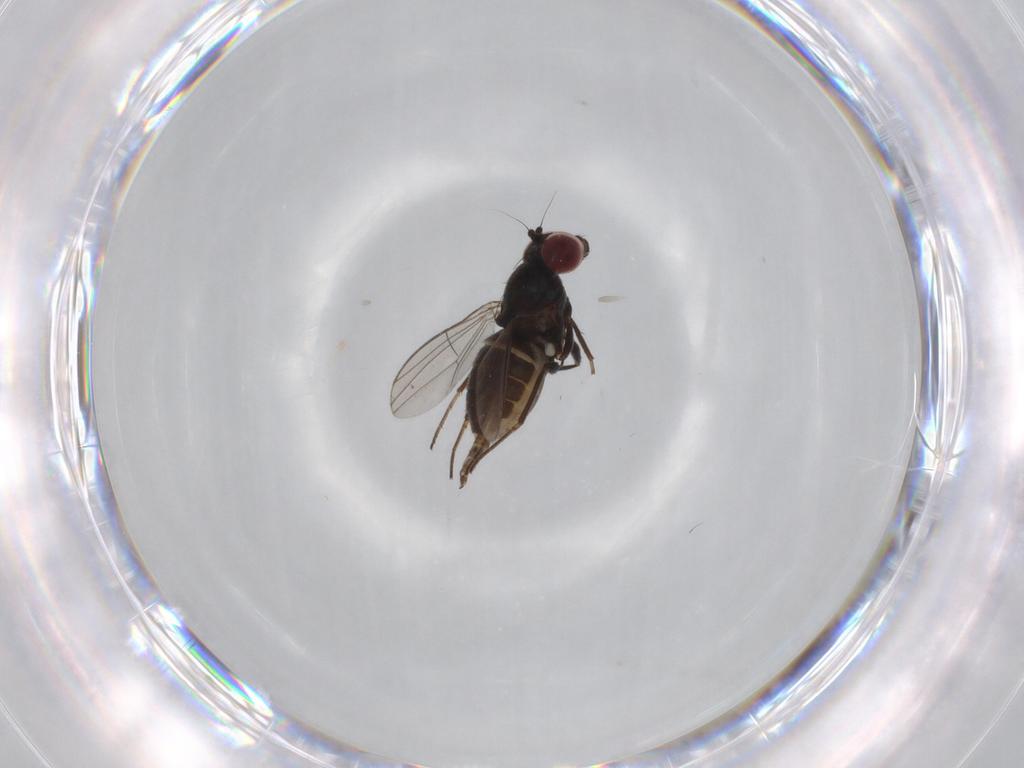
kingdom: Animalia
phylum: Arthropoda
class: Insecta
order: Diptera
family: Dolichopodidae
